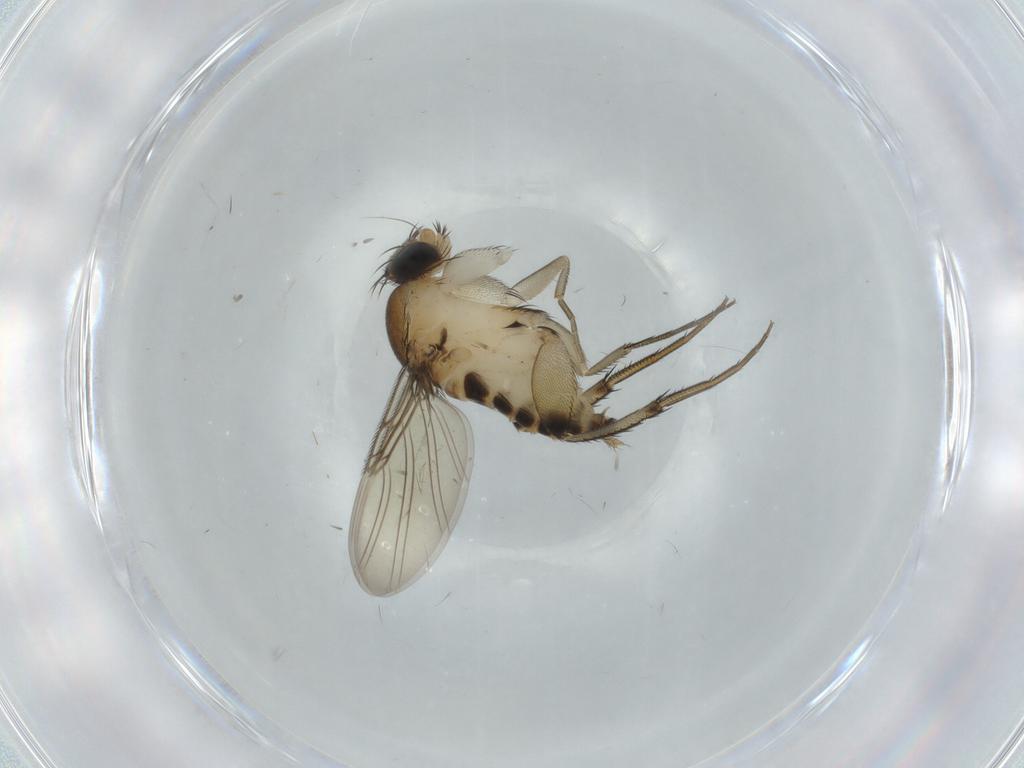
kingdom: Animalia
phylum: Arthropoda
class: Insecta
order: Diptera
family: Phoridae
